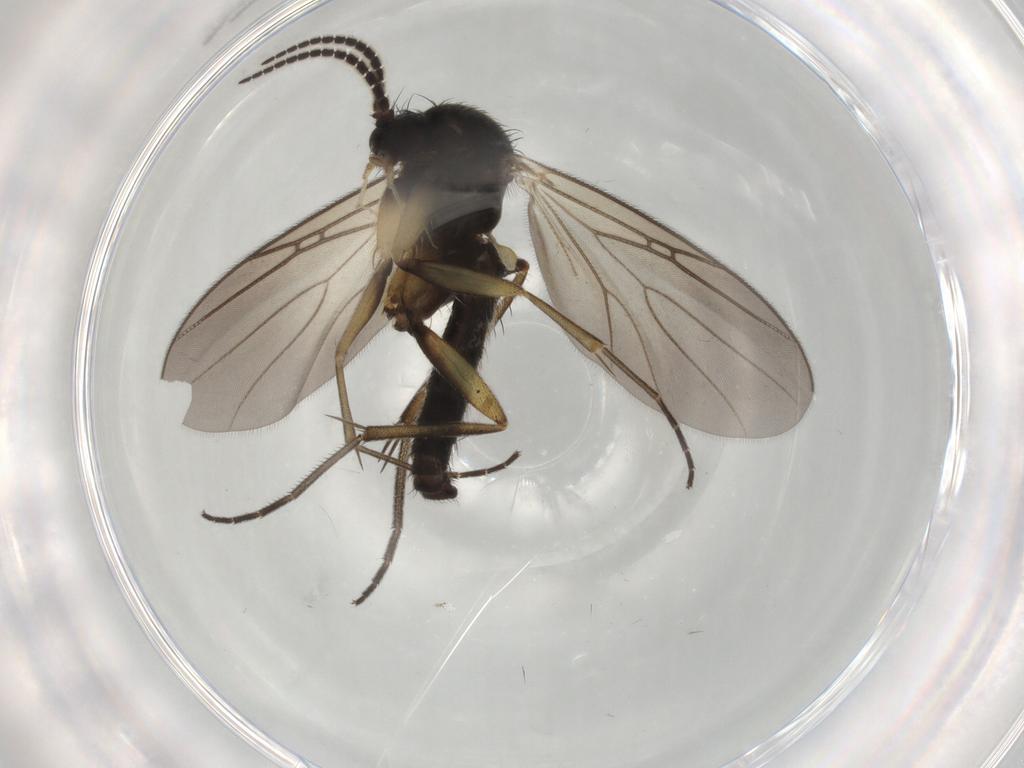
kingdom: Animalia
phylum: Arthropoda
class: Insecta
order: Diptera
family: Mycetophilidae
